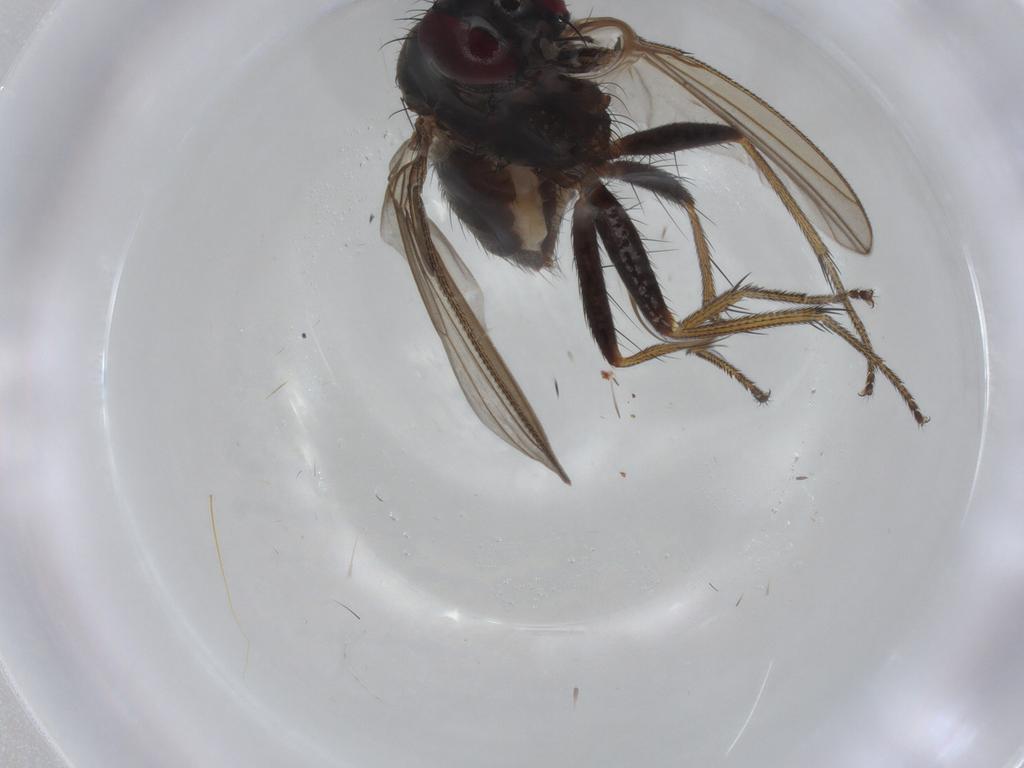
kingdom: Animalia
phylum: Arthropoda
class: Insecta
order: Diptera
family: Muscidae
